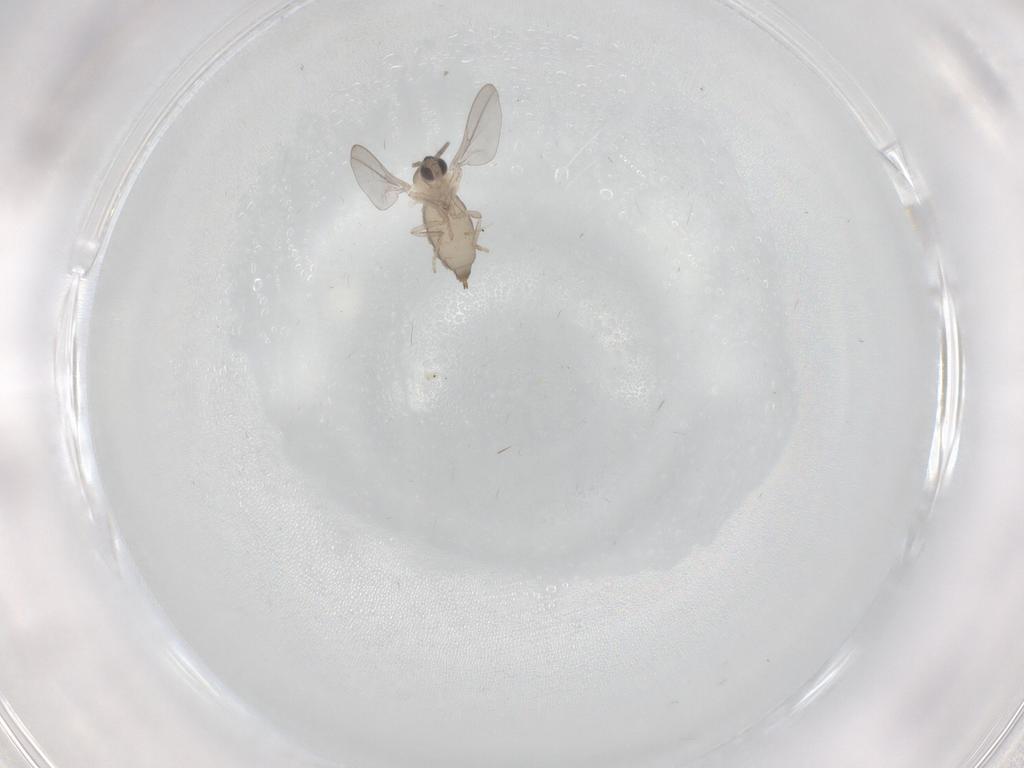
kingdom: Animalia
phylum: Arthropoda
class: Insecta
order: Diptera
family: Cecidomyiidae
